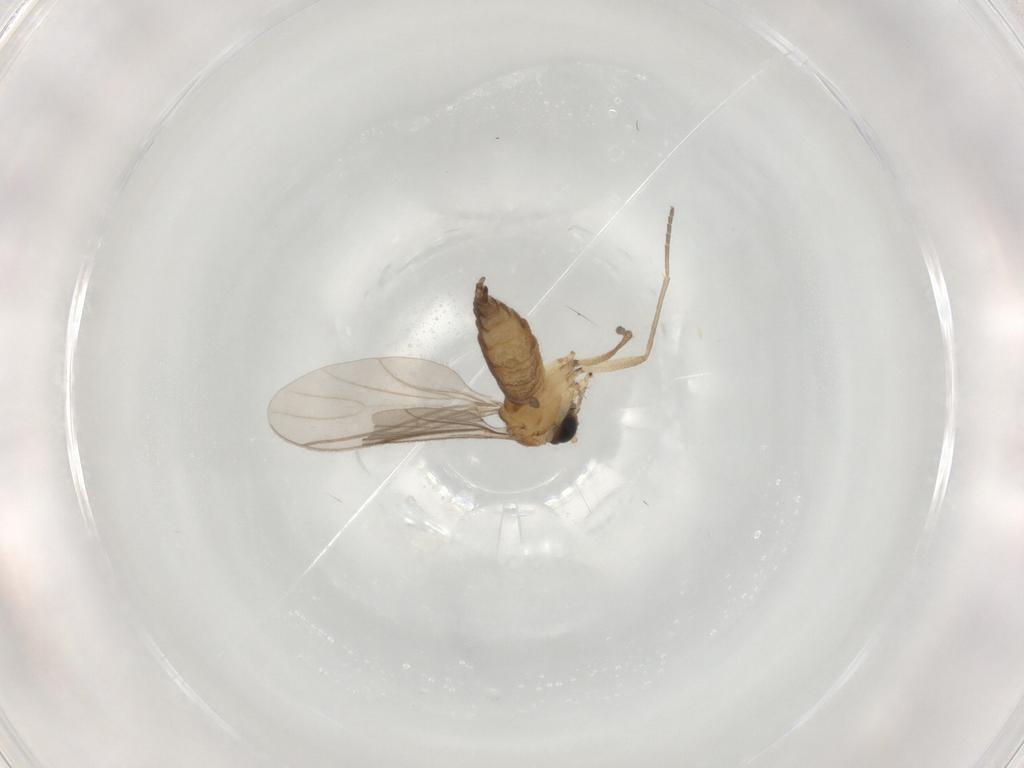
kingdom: Animalia
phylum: Arthropoda
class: Insecta
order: Diptera
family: Sciaridae
